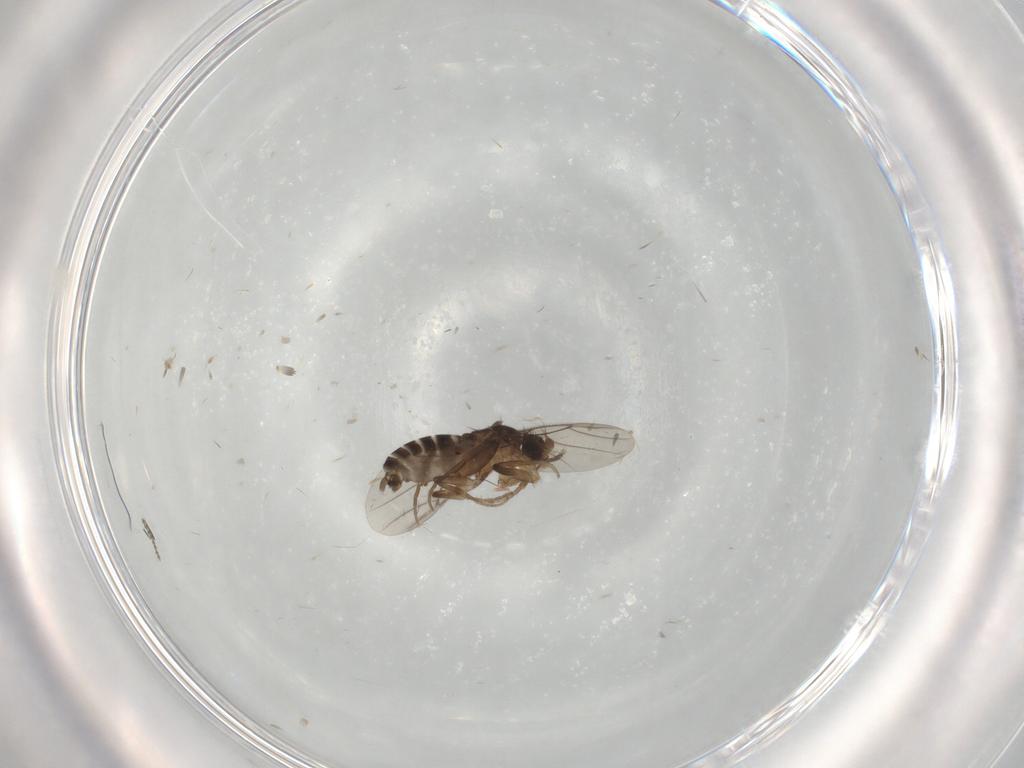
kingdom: Animalia
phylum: Arthropoda
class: Insecta
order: Diptera
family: Phoridae
